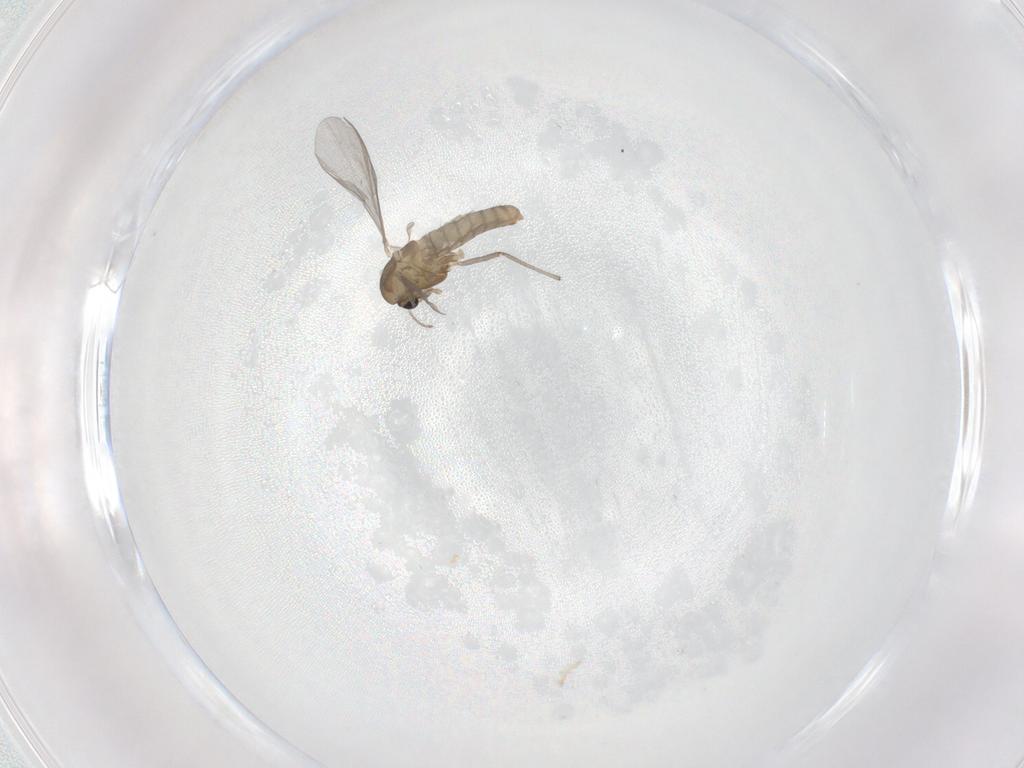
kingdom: Animalia
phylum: Arthropoda
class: Insecta
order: Diptera
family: Chironomidae
